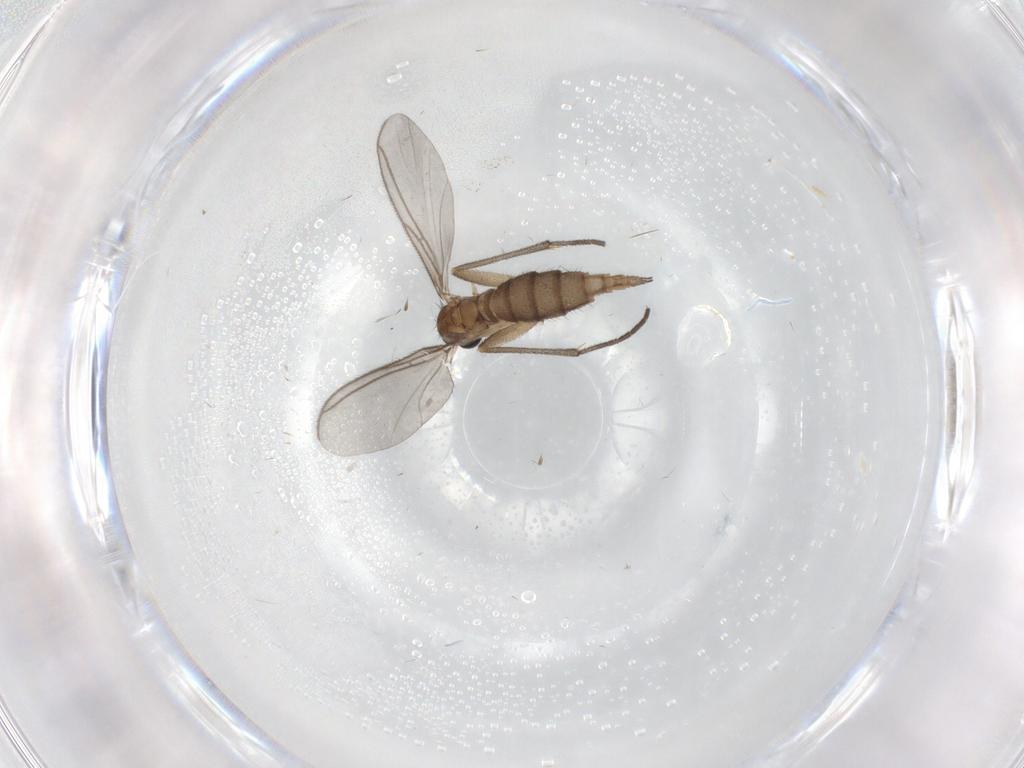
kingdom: Animalia
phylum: Arthropoda
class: Insecta
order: Diptera
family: Sciaridae
